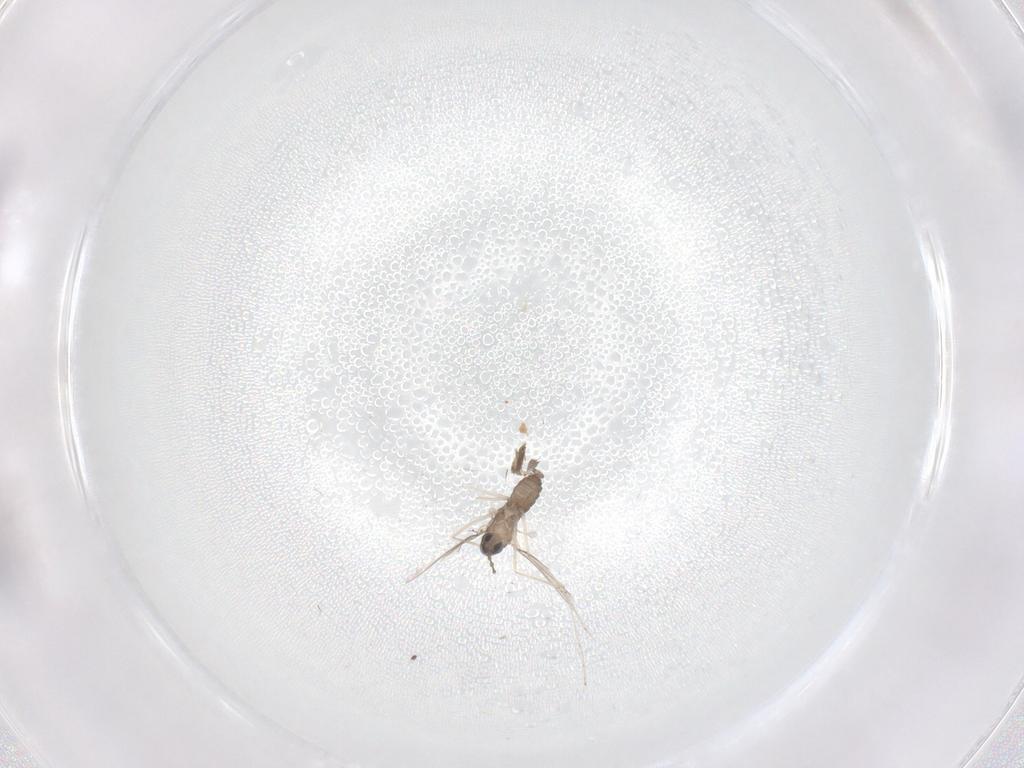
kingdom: Animalia
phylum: Arthropoda
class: Insecta
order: Diptera
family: Cecidomyiidae
